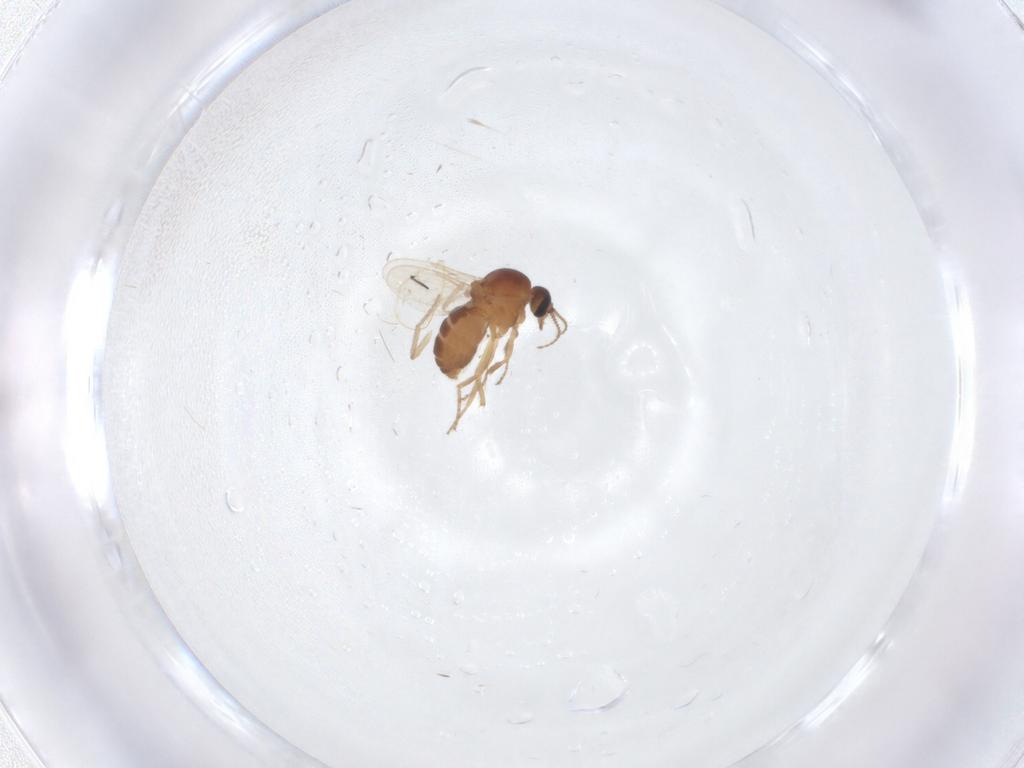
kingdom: Animalia
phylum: Arthropoda
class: Insecta
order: Diptera
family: Ceratopogonidae
